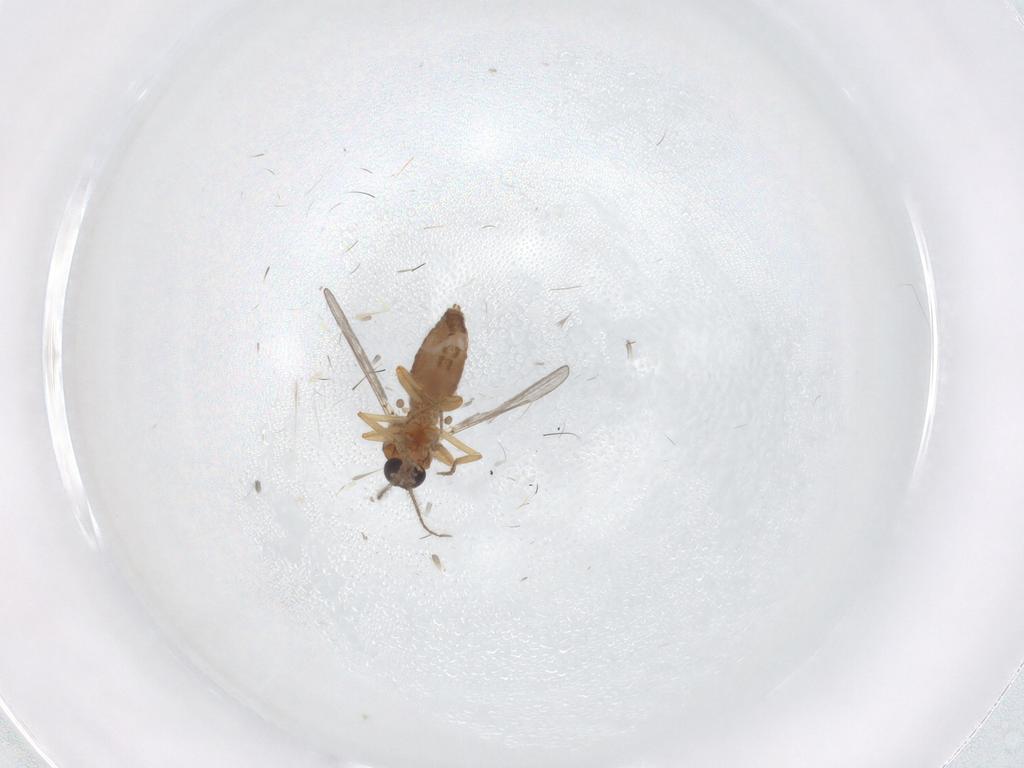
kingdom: Animalia
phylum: Arthropoda
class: Insecta
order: Diptera
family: Ceratopogonidae
